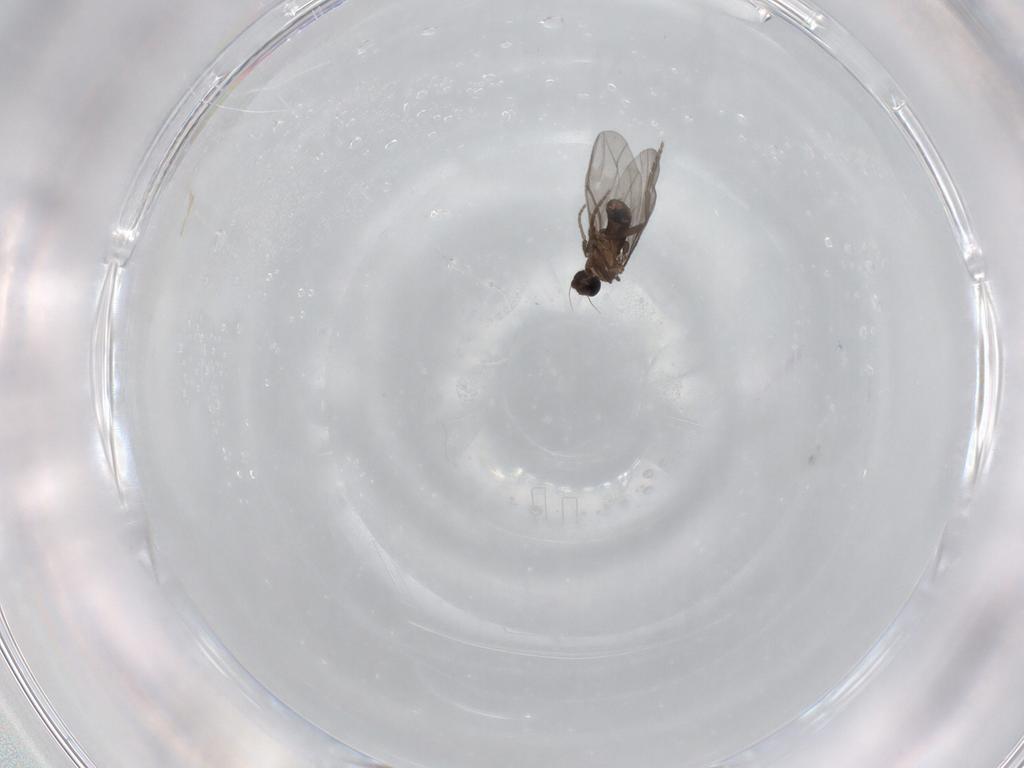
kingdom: Animalia
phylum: Arthropoda
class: Insecta
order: Diptera
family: Phoridae
